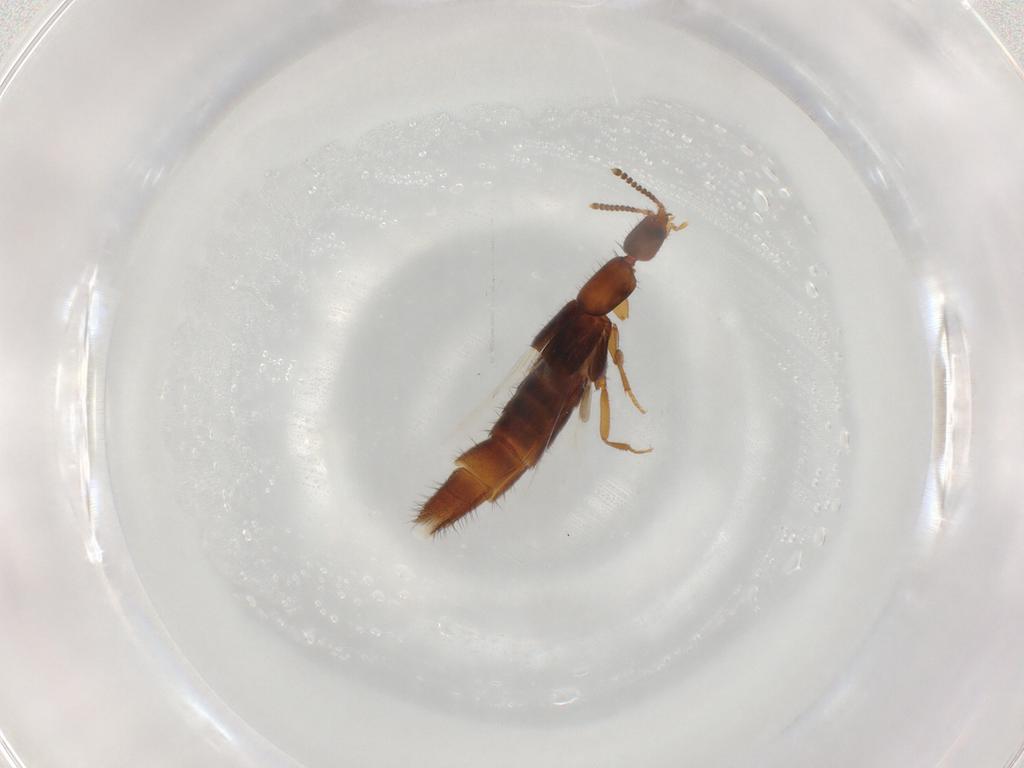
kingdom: Animalia
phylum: Arthropoda
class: Insecta
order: Coleoptera
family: Staphylinidae
